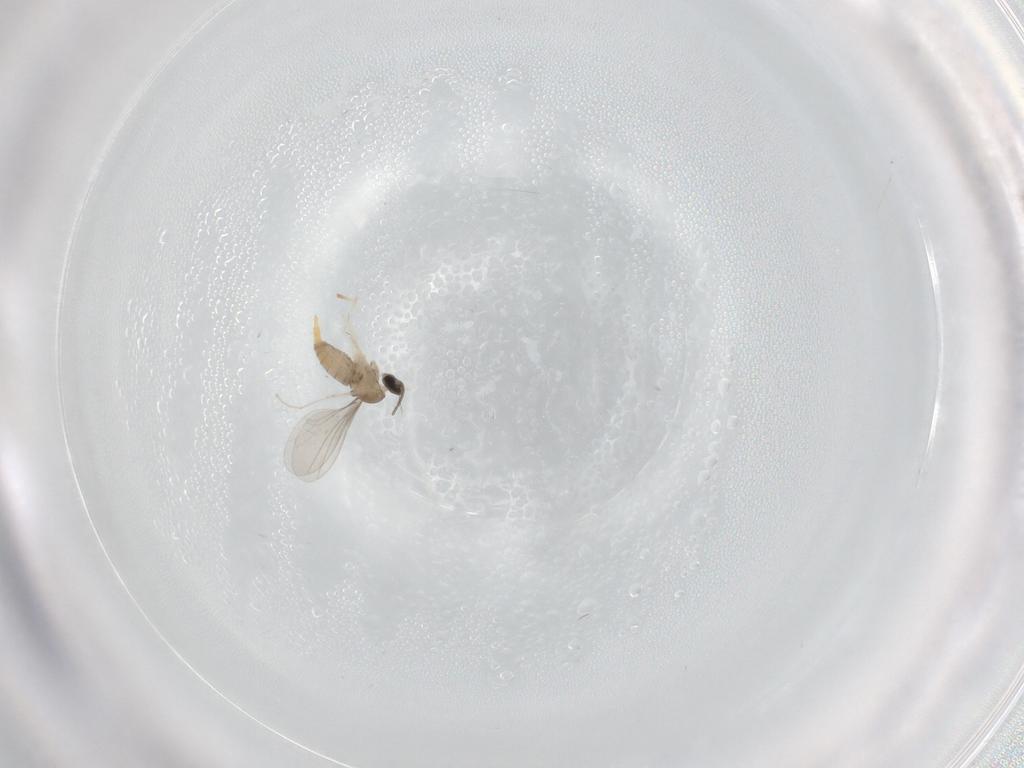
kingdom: Animalia
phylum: Arthropoda
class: Insecta
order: Diptera
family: Cecidomyiidae
